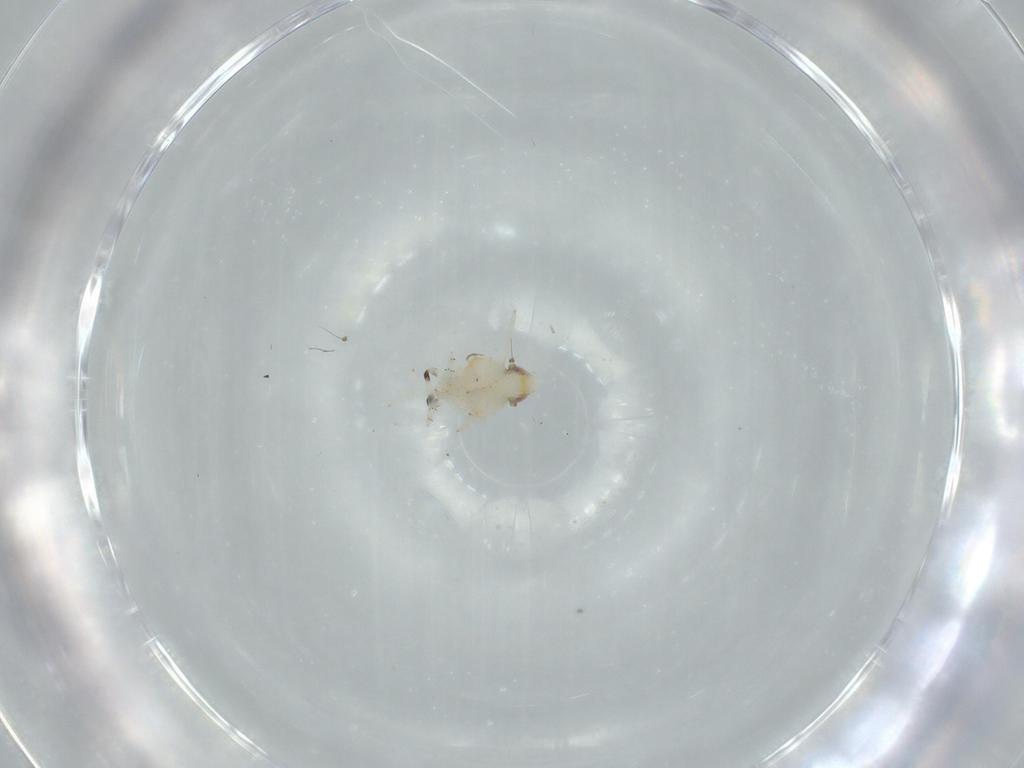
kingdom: Animalia
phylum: Arthropoda
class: Insecta
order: Hemiptera
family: Nogodinidae
